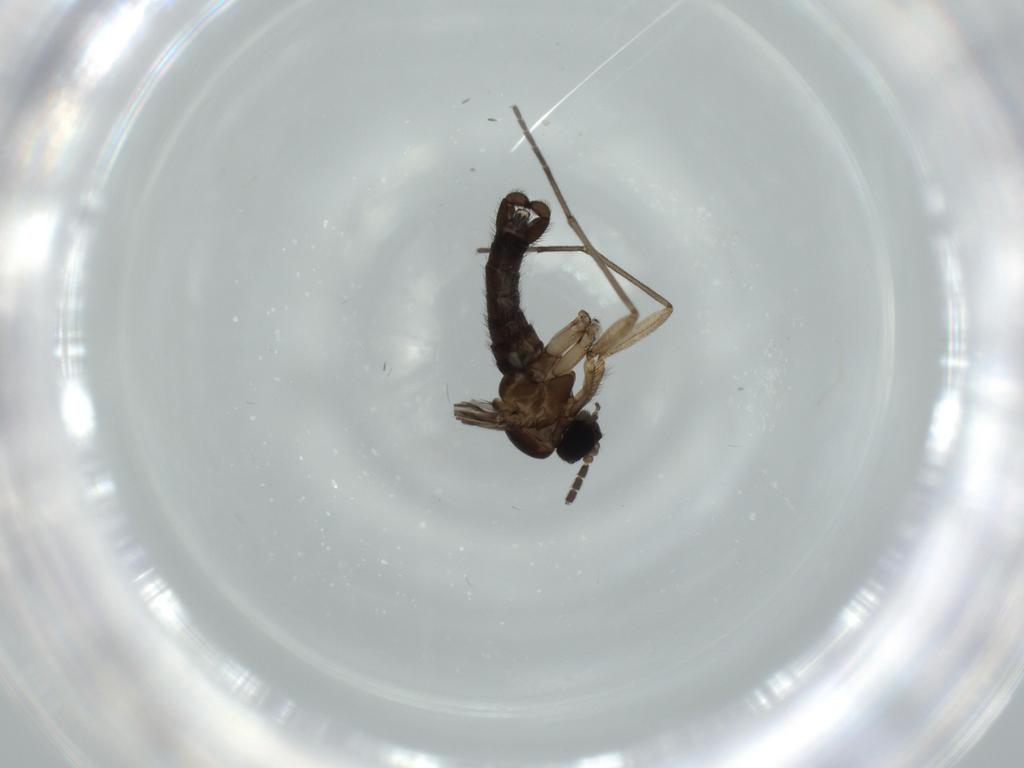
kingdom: Animalia
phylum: Arthropoda
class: Insecta
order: Diptera
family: Sciaridae
